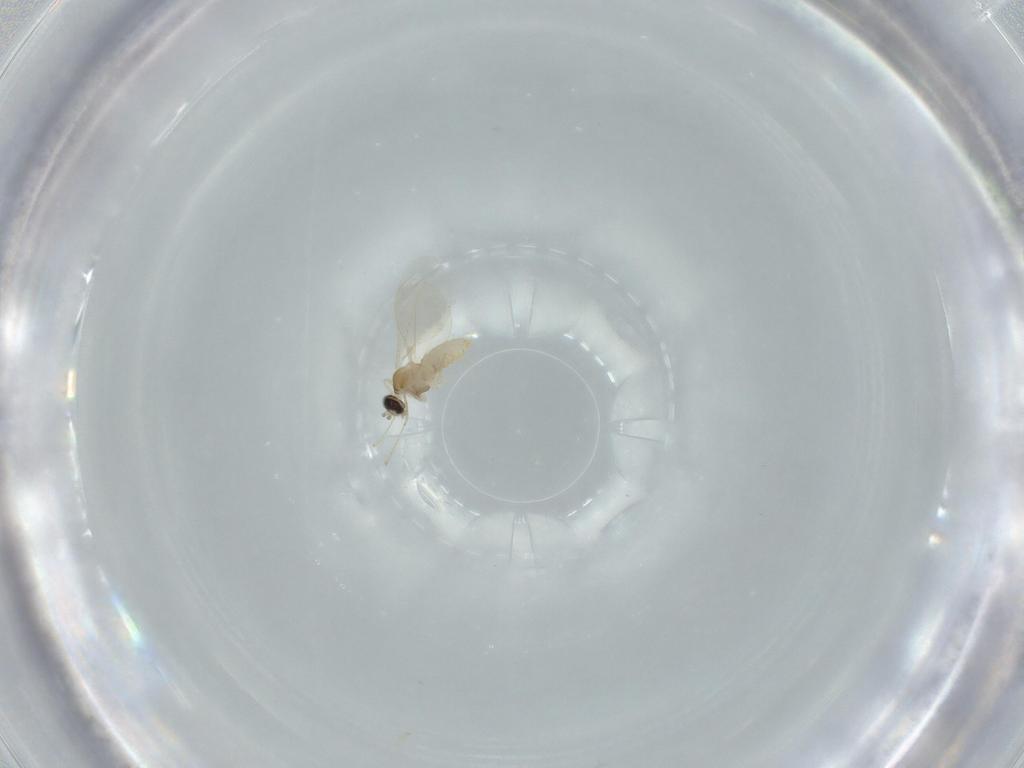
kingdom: Animalia
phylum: Arthropoda
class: Insecta
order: Diptera
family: Cecidomyiidae
